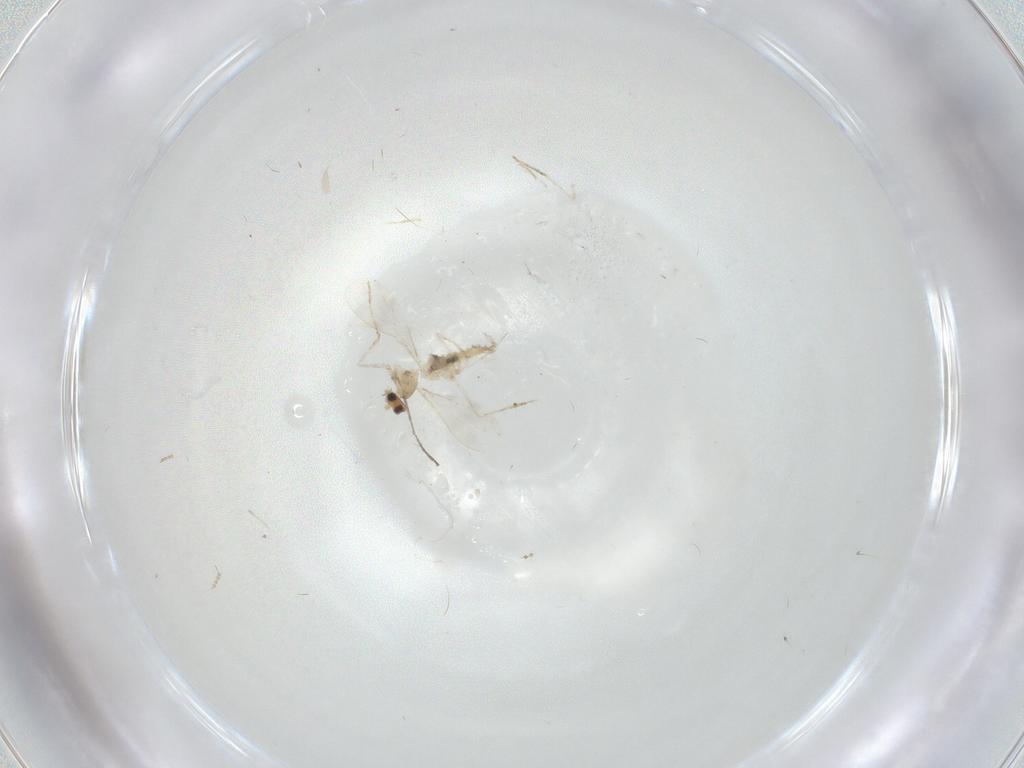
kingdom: Animalia
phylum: Arthropoda
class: Insecta
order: Diptera
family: Cecidomyiidae
